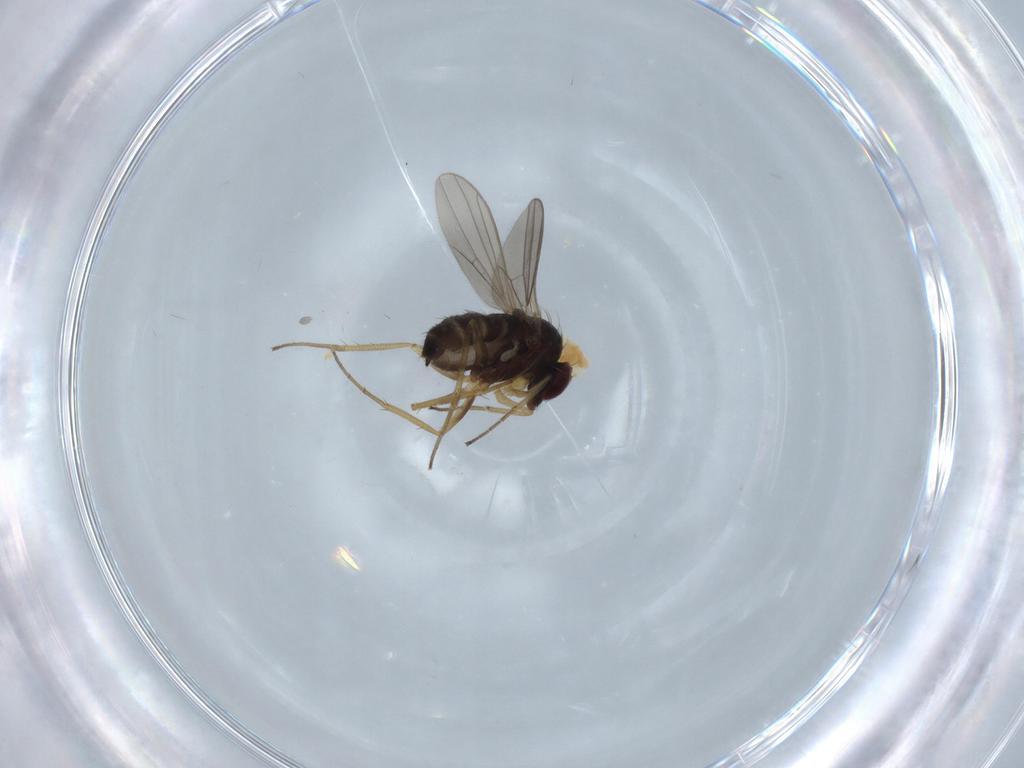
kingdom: Animalia
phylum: Arthropoda
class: Insecta
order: Diptera
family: Dolichopodidae
